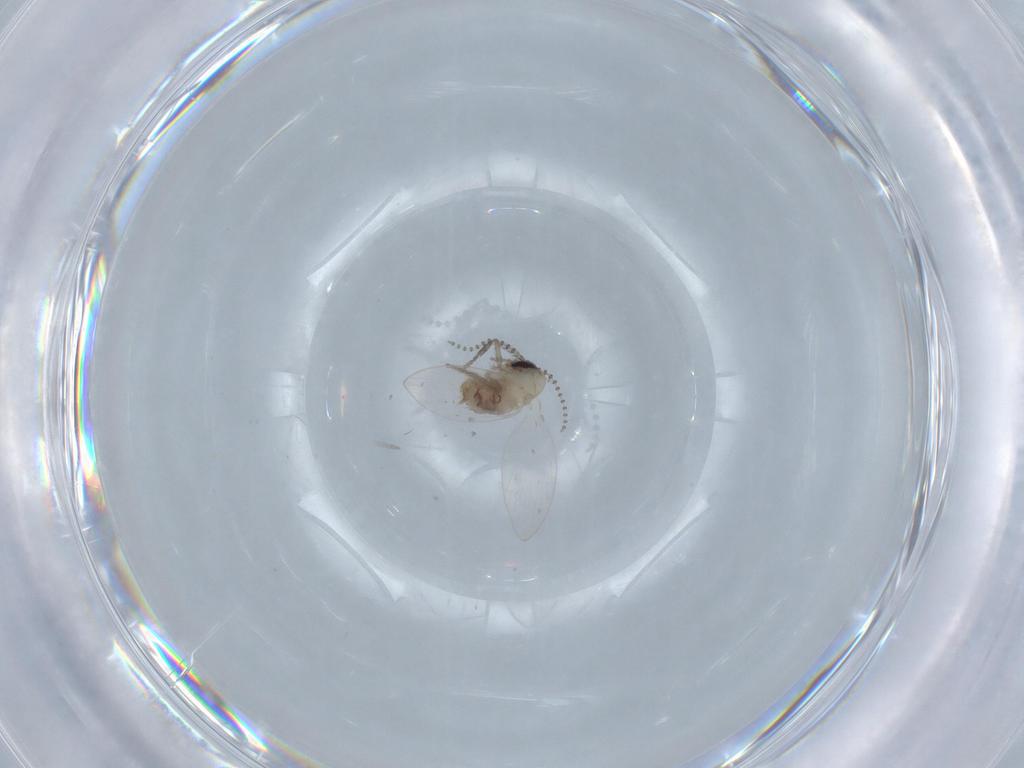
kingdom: Animalia
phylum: Arthropoda
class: Insecta
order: Diptera
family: Psychodidae
